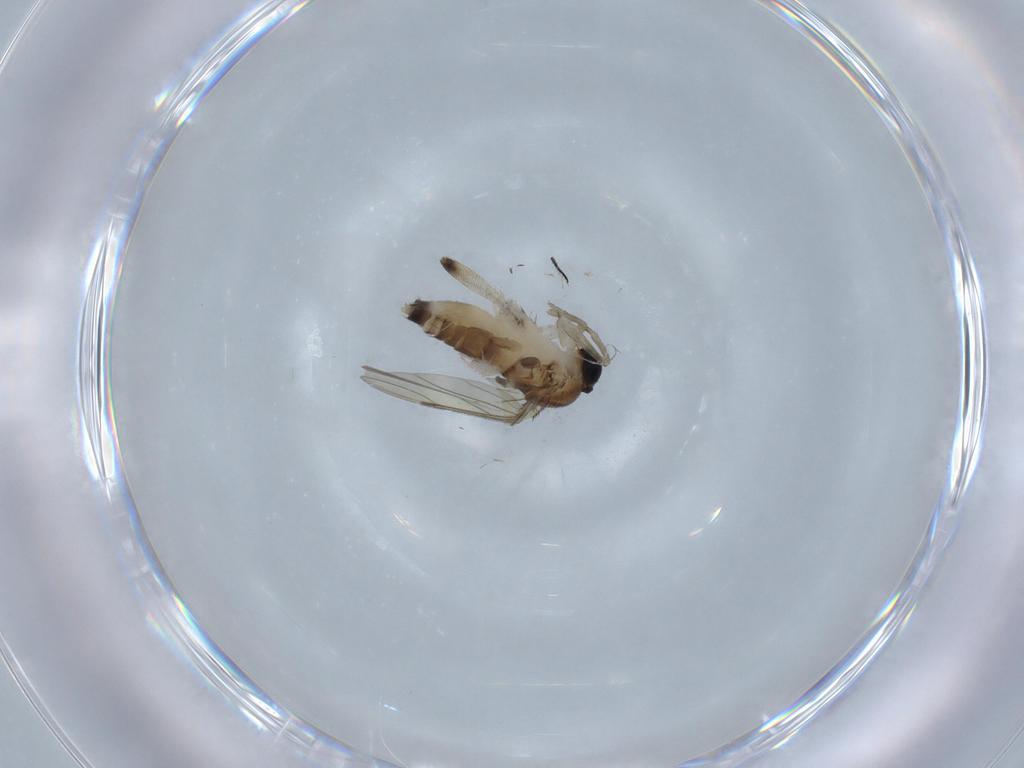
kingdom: Animalia
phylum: Arthropoda
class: Insecta
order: Diptera
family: Phoridae
